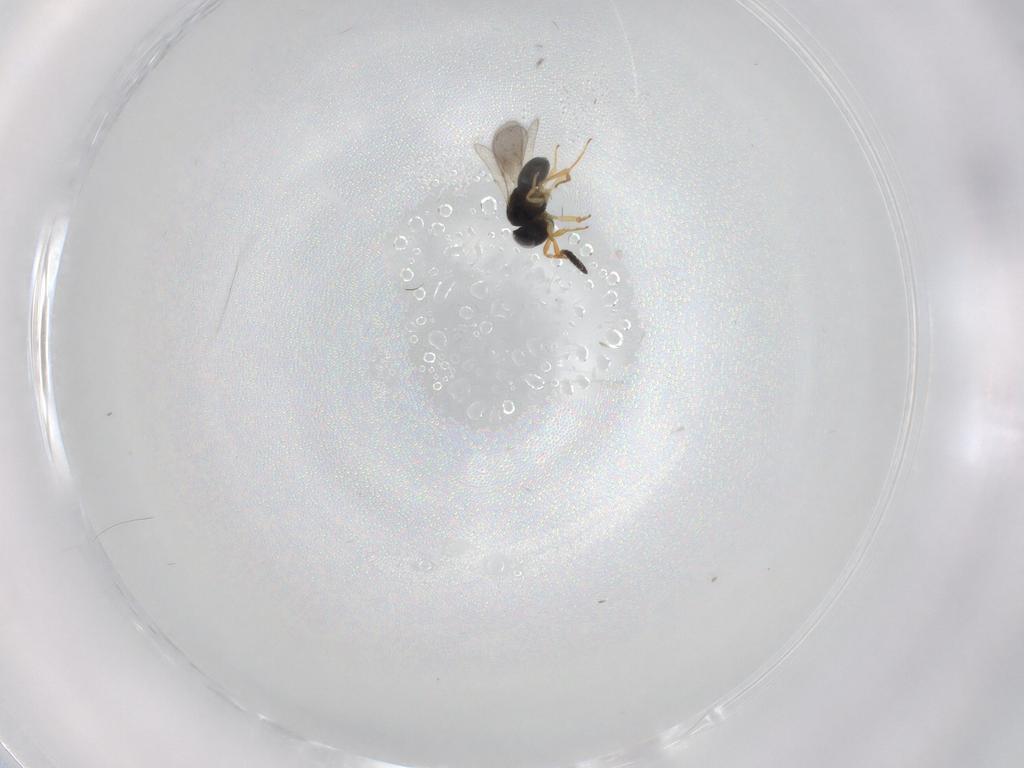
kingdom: Animalia
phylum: Arthropoda
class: Insecta
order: Hymenoptera
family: Scelionidae
